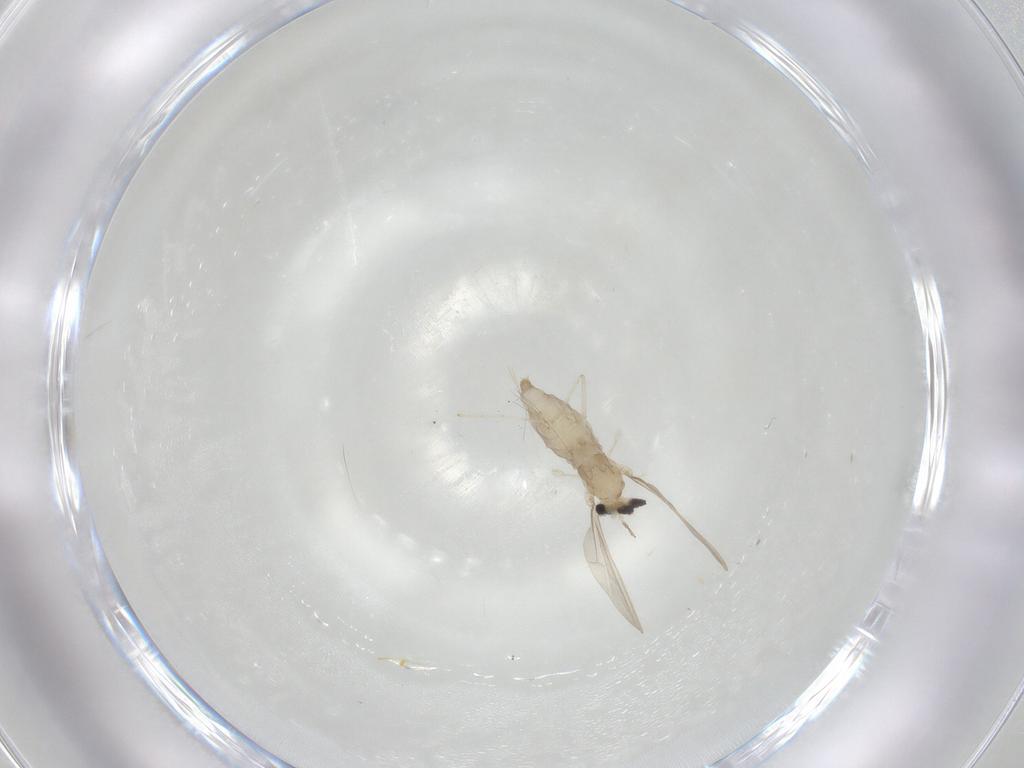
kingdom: Animalia
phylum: Arthropoda
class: Insecta
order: Diptera
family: Cecidomyiidae
